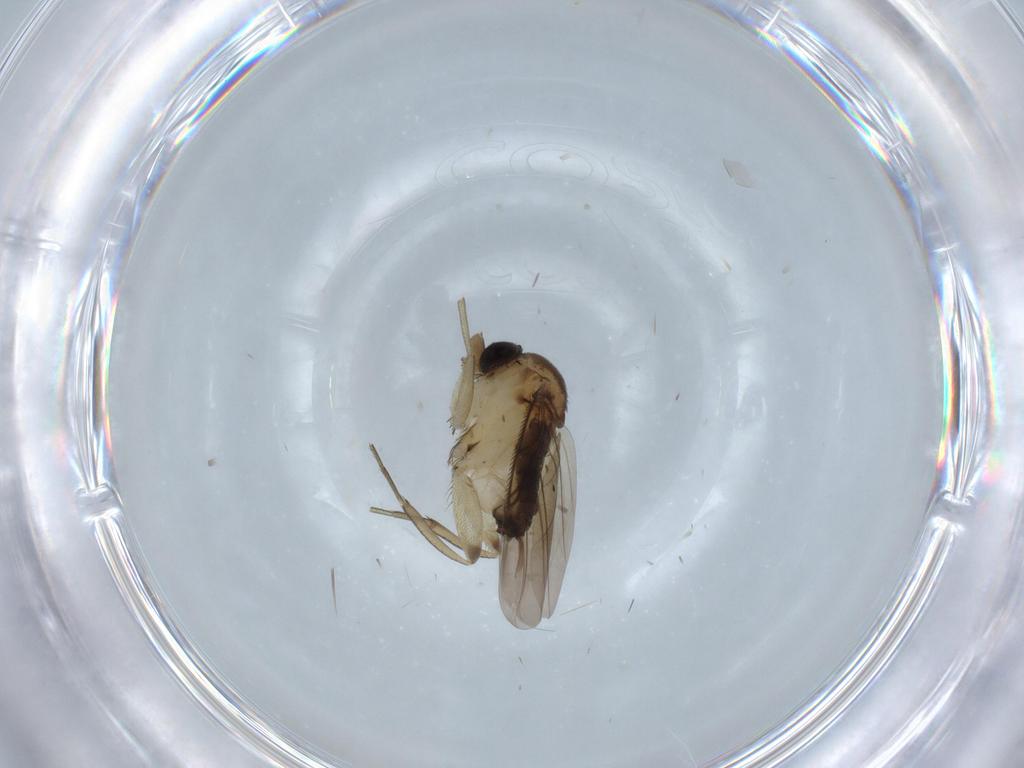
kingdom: Animalia
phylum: Arthropoda
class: Insecta
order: Diptera
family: Phoridae
